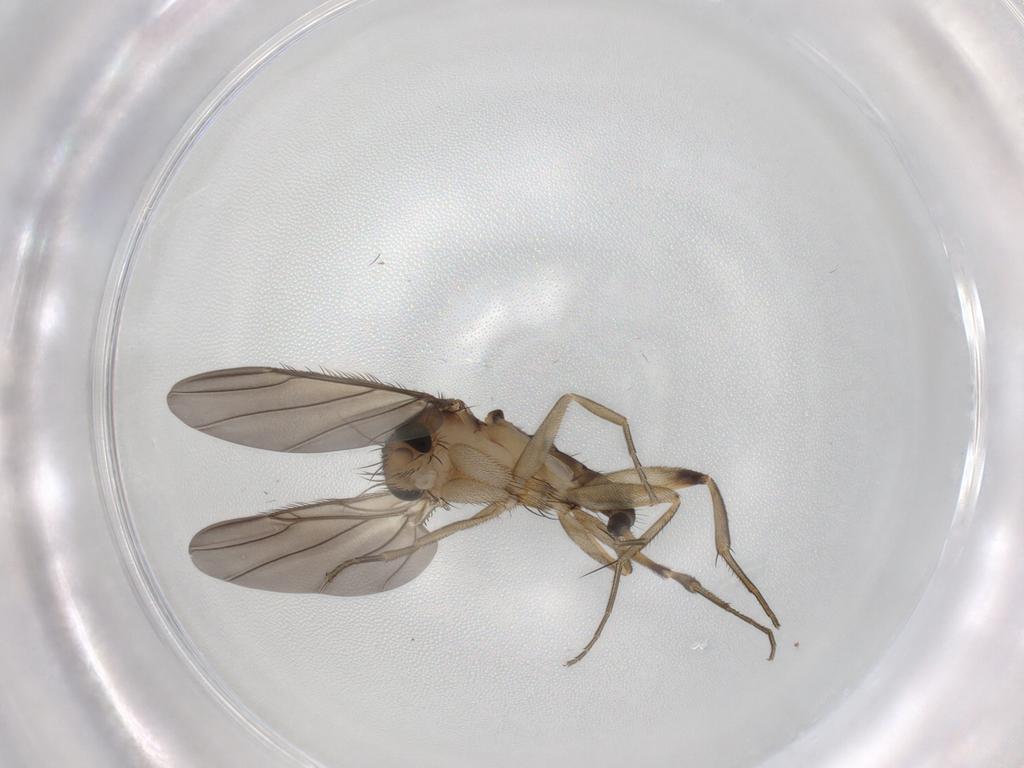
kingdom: Animalia
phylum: Arthropoda
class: Insecta
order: Diptera
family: Phoridae
